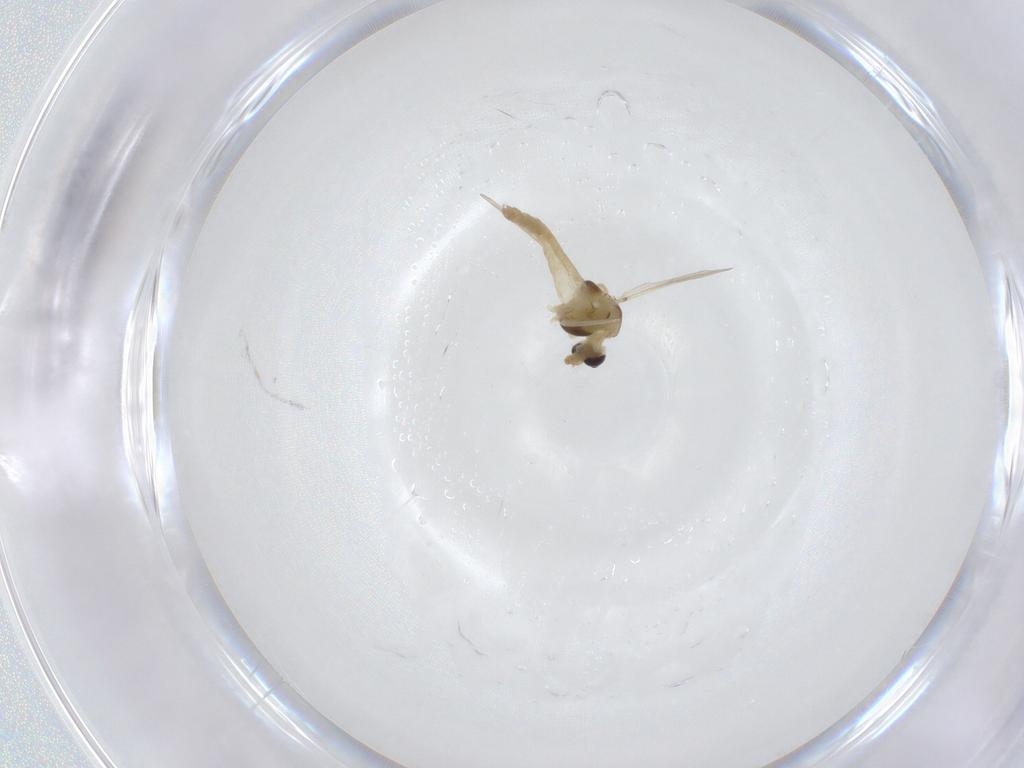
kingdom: Animalia
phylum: Arthropoda
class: Insecta
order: Diptera
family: Chironomidae
